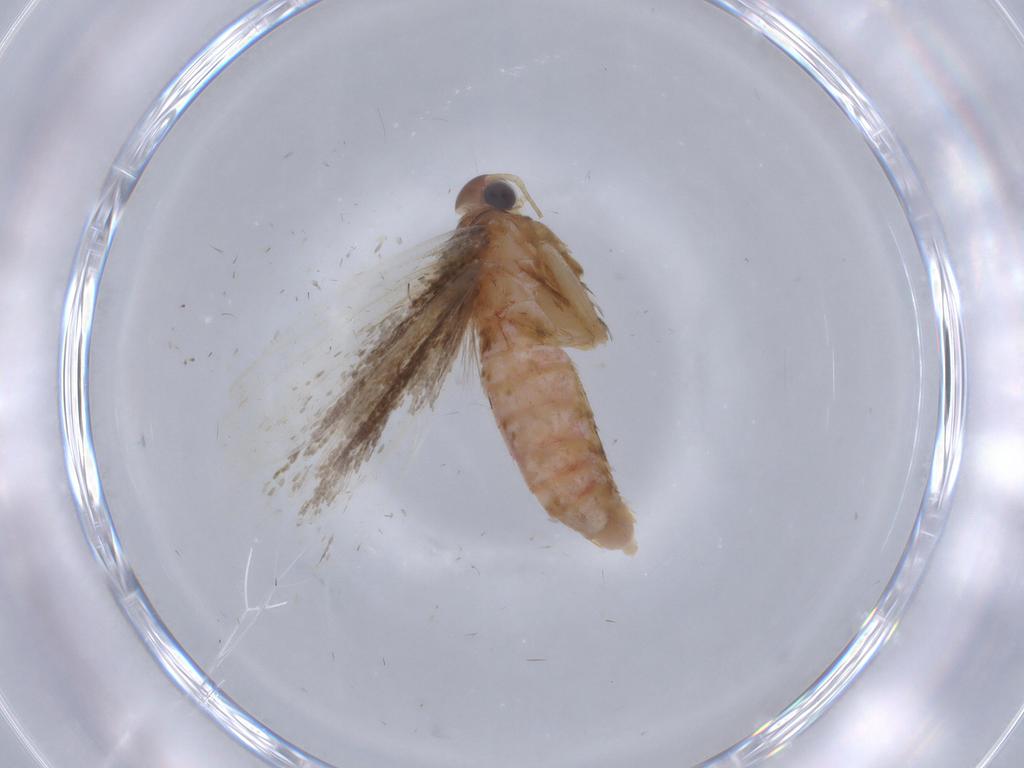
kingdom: Animalia
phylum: Arthropoda
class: Insecta
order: Lepidoptera
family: Gelechiidae
